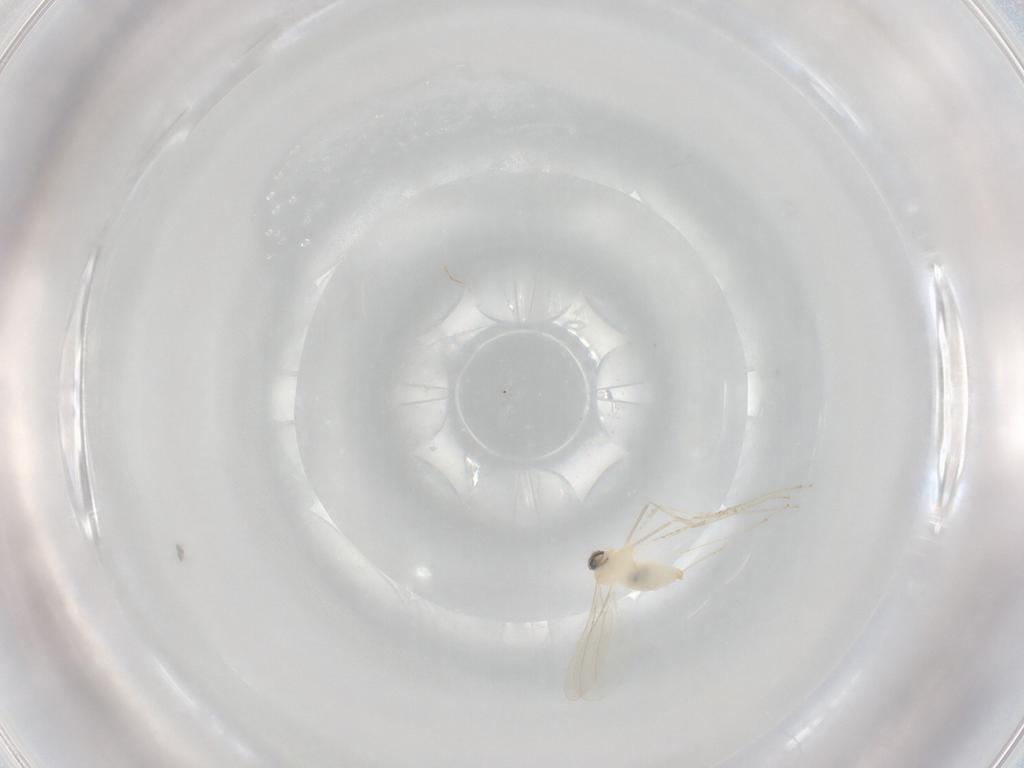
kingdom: Animalia
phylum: Arthropoda
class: Insecta
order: Diptera
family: Cecidomyiidae
